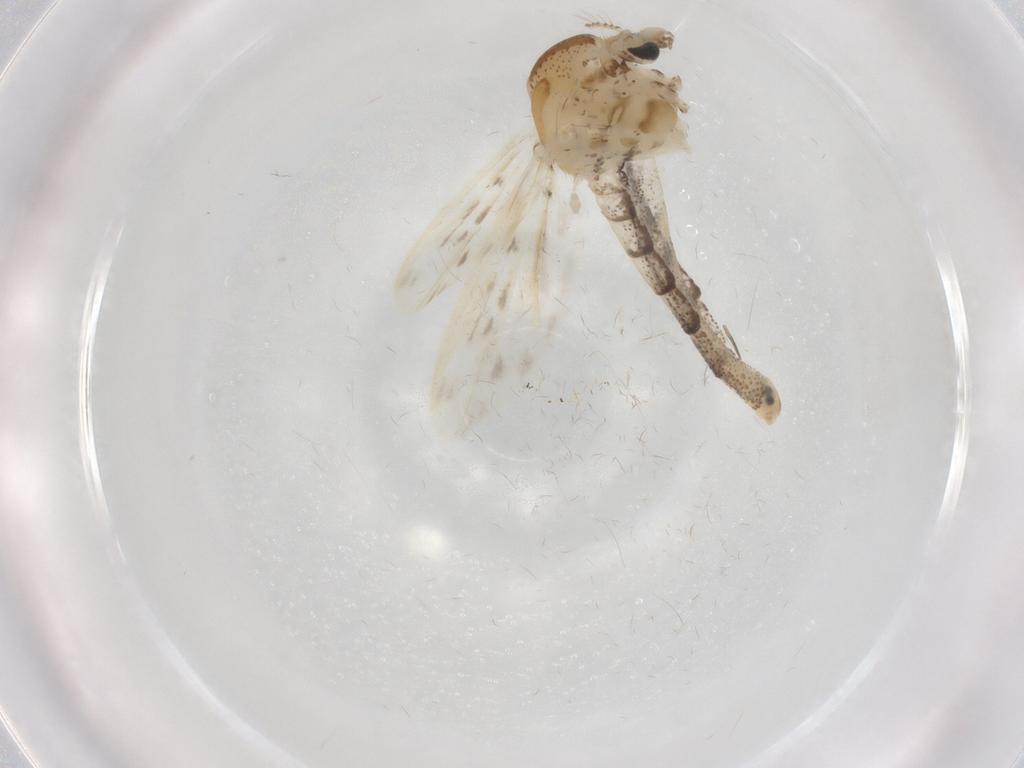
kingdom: Animalia
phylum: Arthropoda
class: Insecta
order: Diptera
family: Chaoboridae
